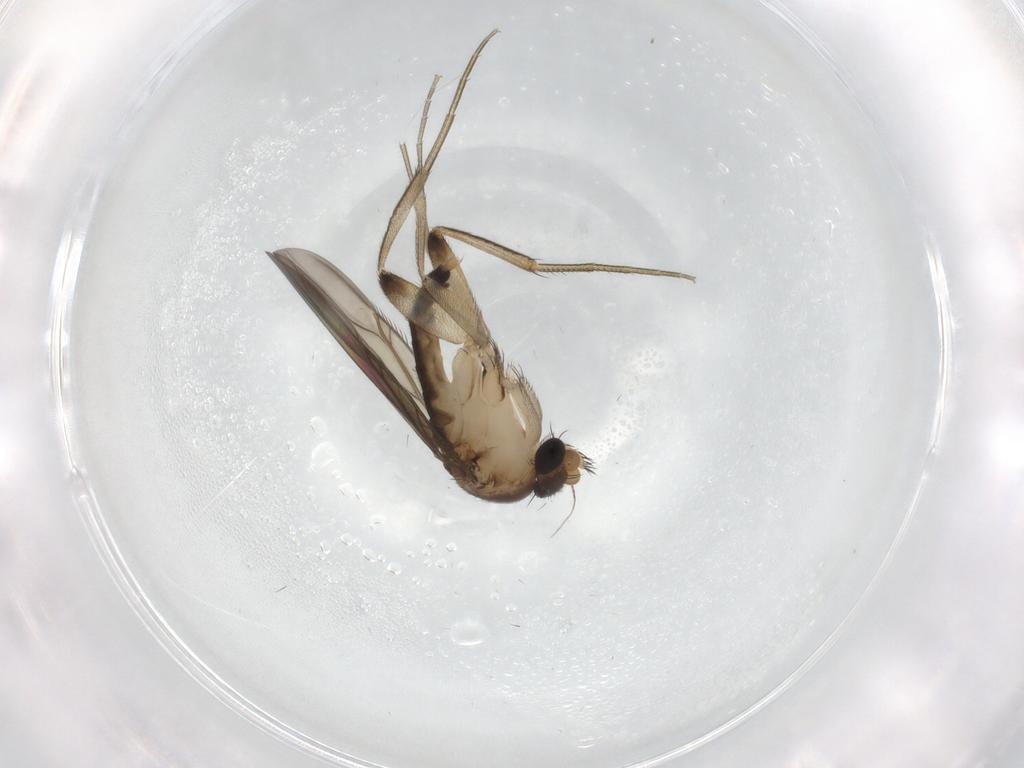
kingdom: Animalia
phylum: Arthropoda
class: Insecta
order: Diptera
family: Phoridae
